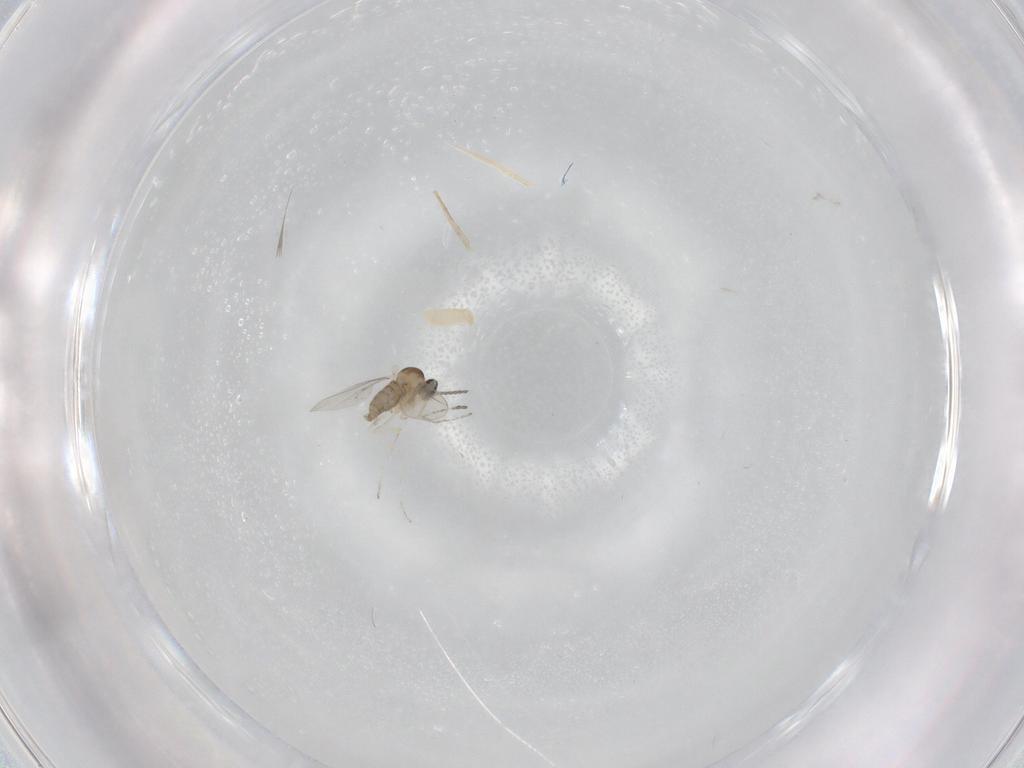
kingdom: Animalia
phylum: Arthropoda
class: Insecta
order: Diptera
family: Cecidomyiidae
